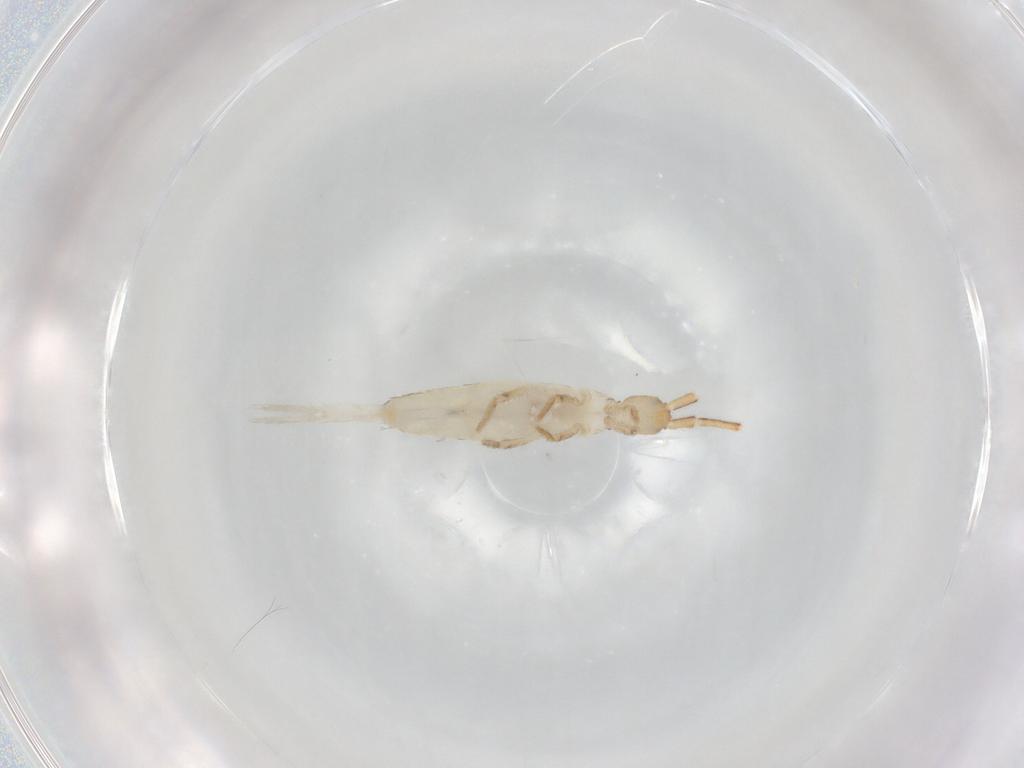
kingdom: Animalia
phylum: Arthropoda
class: Collembola
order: Entomobryomorpha
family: Entomobryidae
